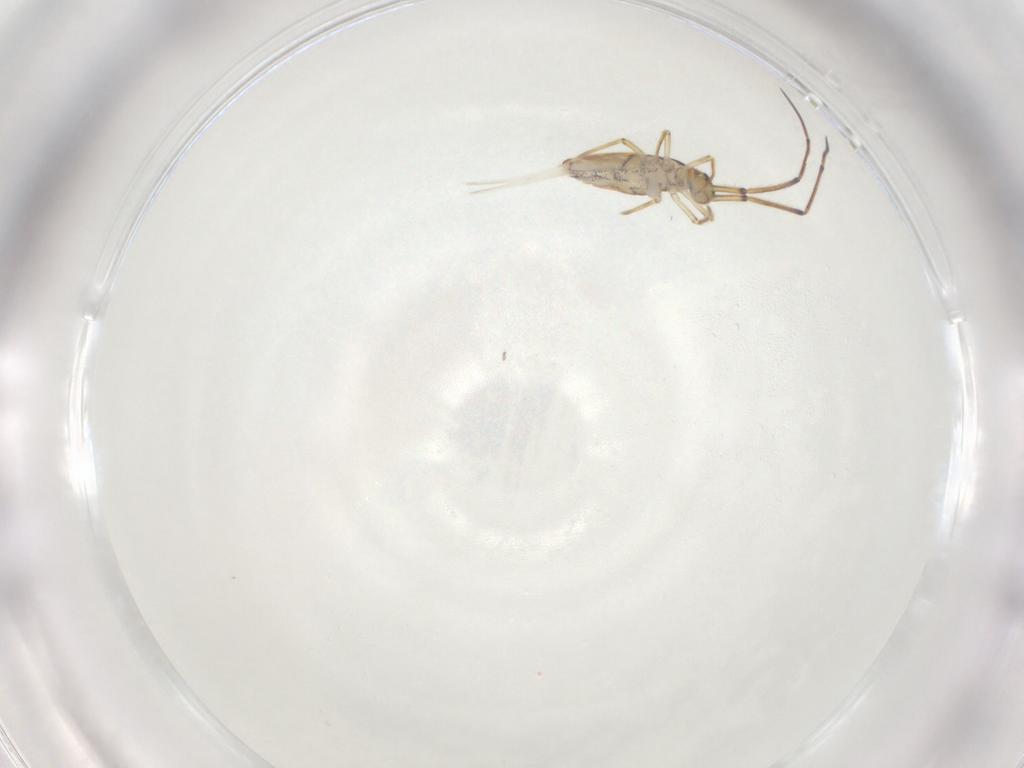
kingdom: Animalia
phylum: Arthropoda
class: Collembola
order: Entomobryomorpha
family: Paronellidae
